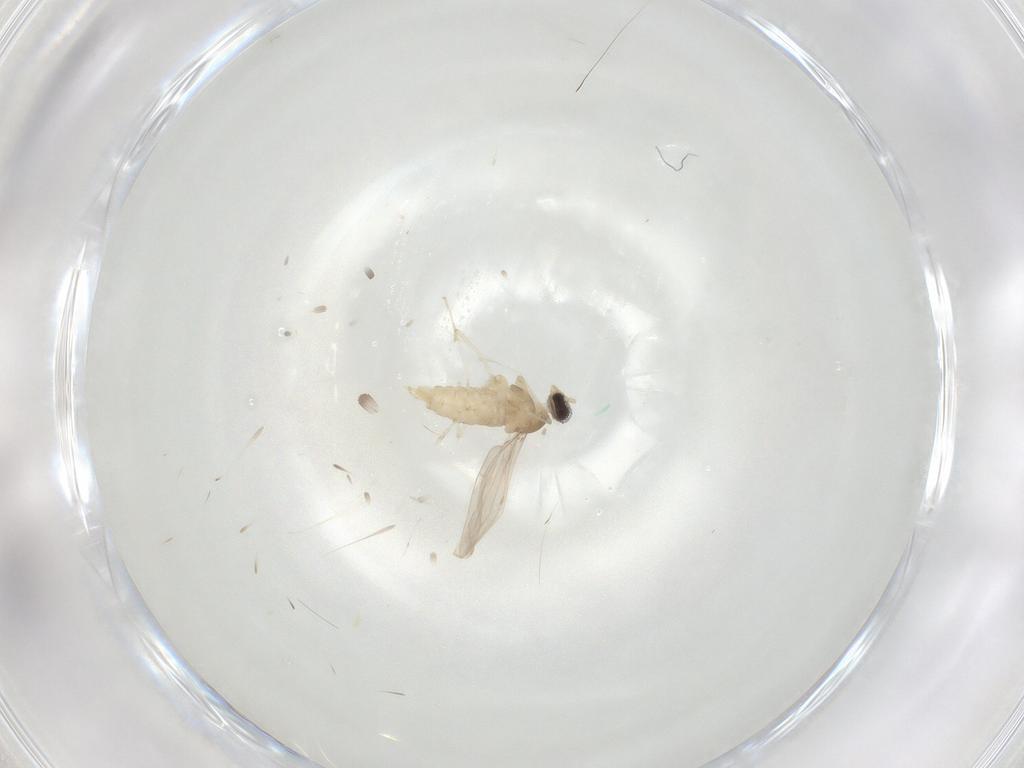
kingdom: Animalia
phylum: Arthropoda
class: Insecta
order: Diptera
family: Cecidomyiidae
